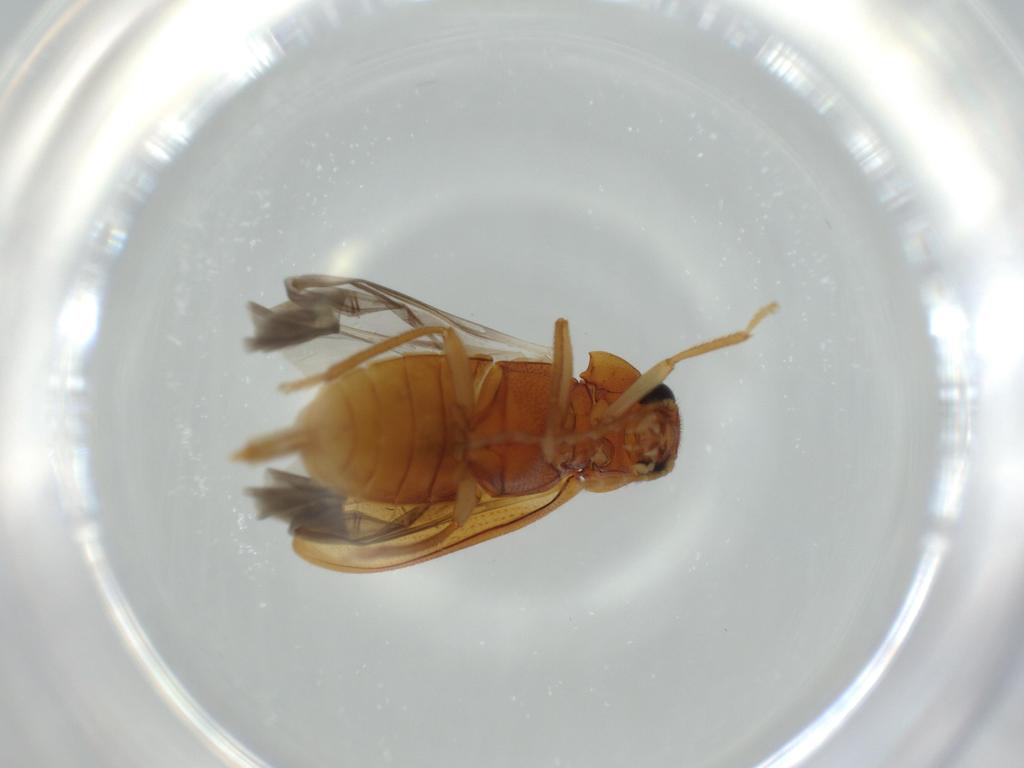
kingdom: Animalia
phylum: Arthropoda
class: Insecta
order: Coleoptera
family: Ptilodactylidae
